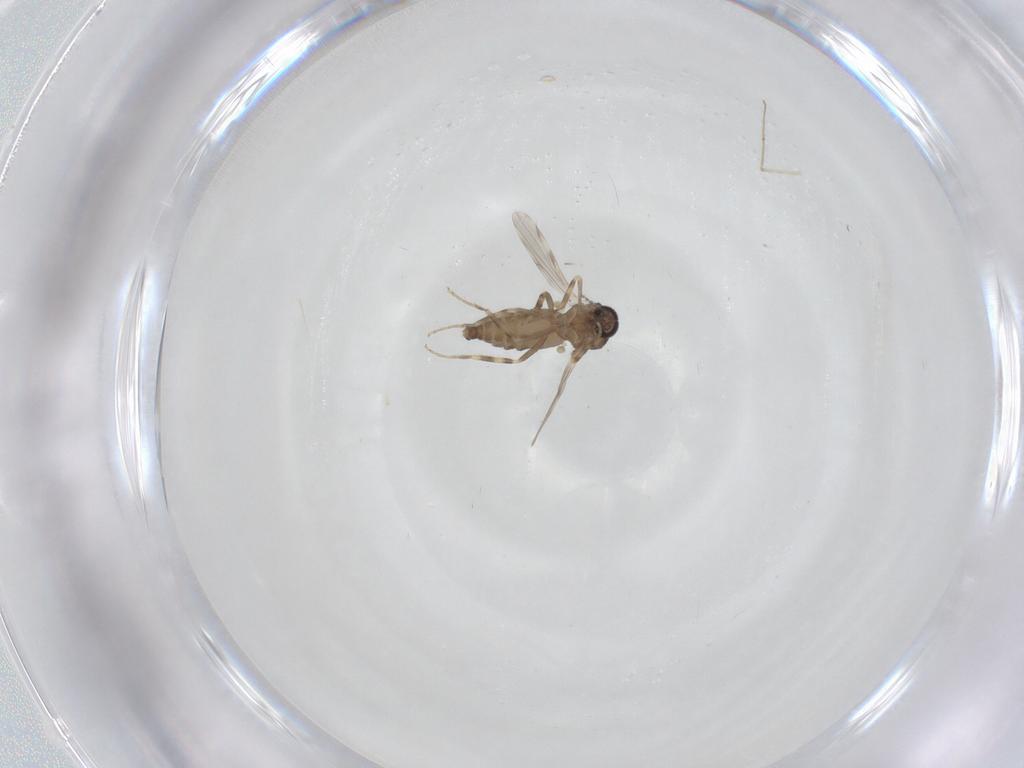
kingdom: Animalia
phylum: Arthropoda
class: Insecta
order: Diptera
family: Ceratopogonidae
